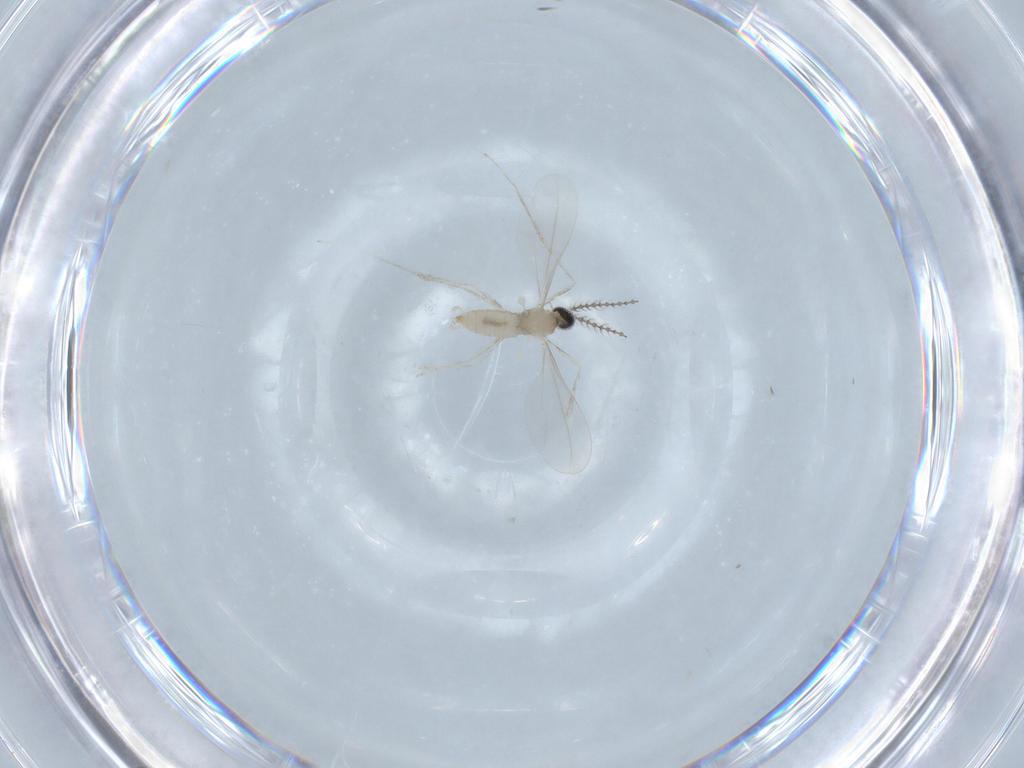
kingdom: Animalia
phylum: Arthropoda
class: Insecta
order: Diptera
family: Cecidomyiidae
